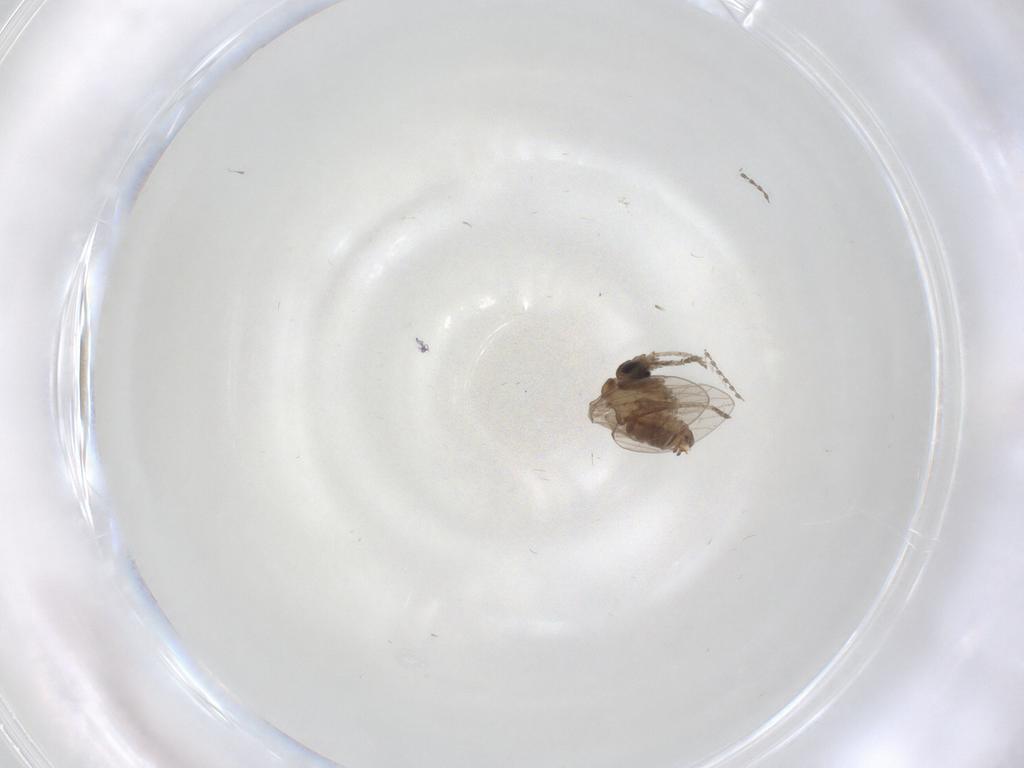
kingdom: Animalia
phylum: Arthropoda
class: Insecta
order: Diptera
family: Psychodidae
